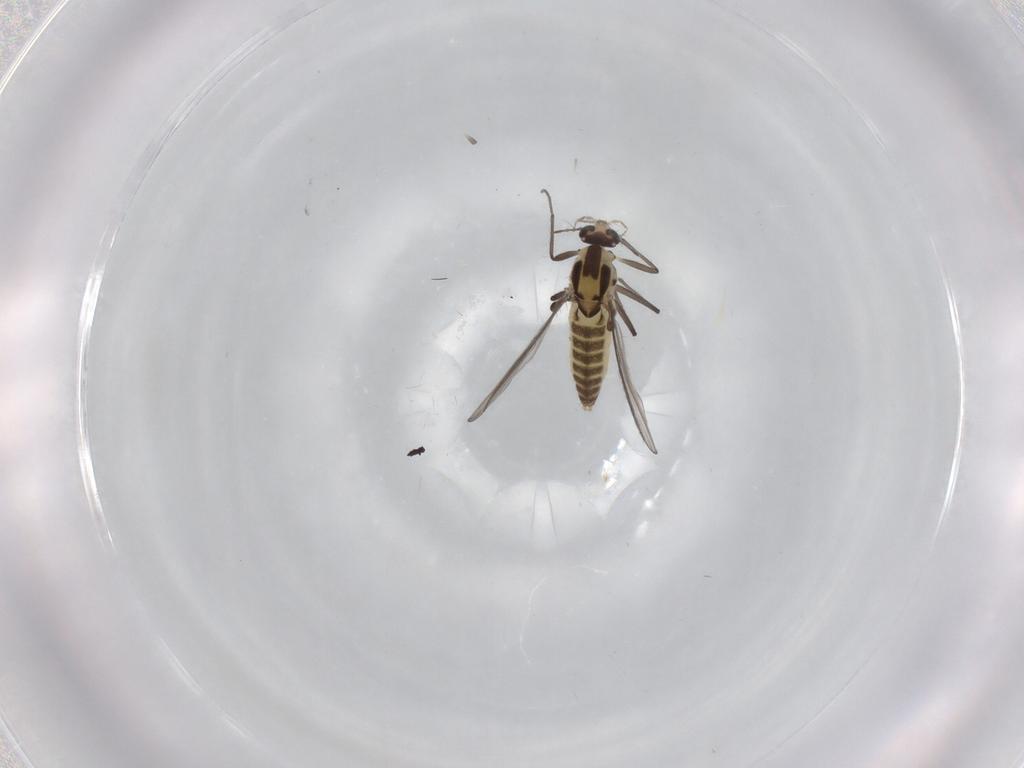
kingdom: Animalia
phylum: Arthropoda
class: Insecta
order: Diptera
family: Chironomidae
